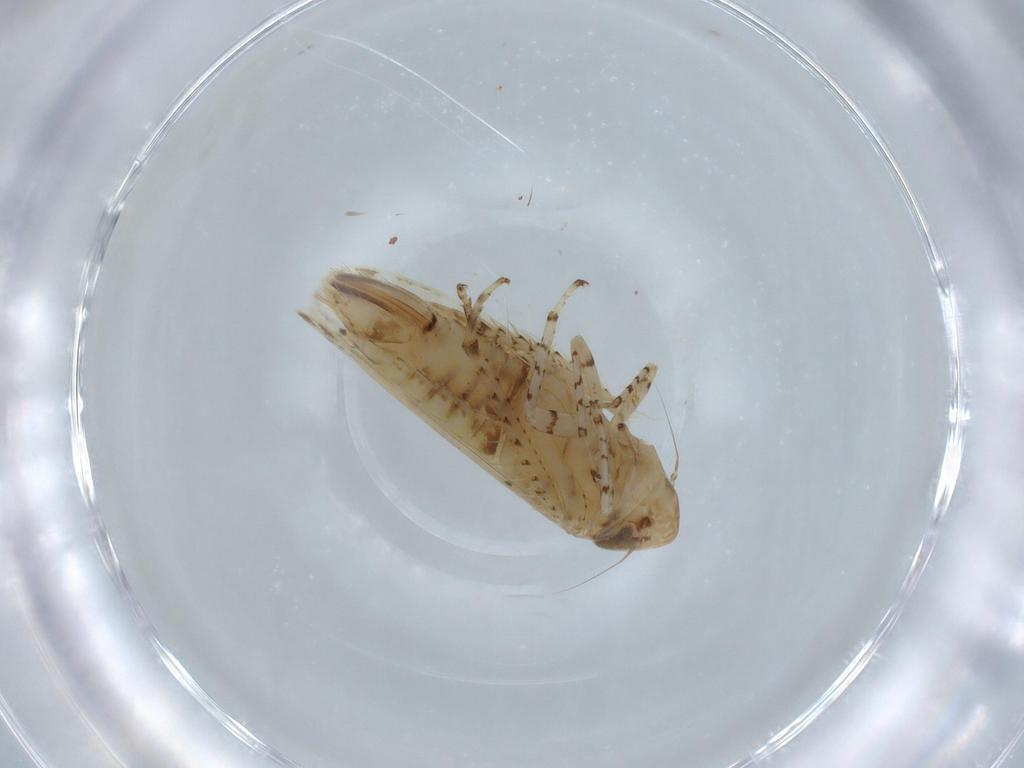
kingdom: Animalia
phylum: Arthropoda
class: Insecta
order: Hemiptera
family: Cicadellidae
